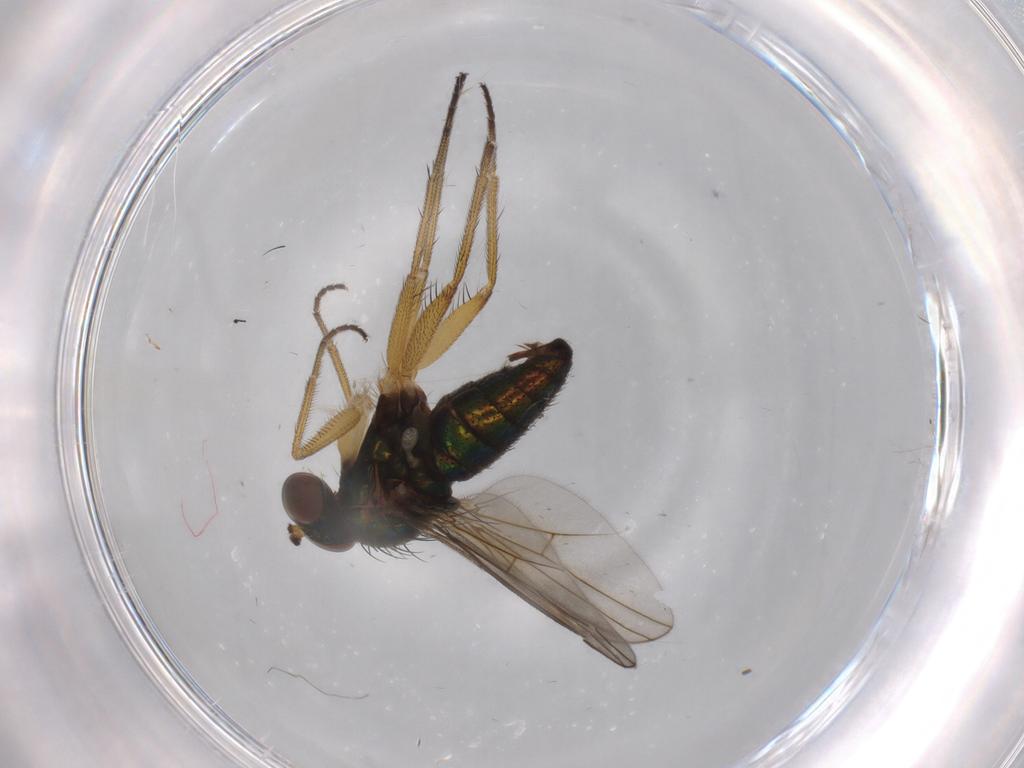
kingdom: Animalia
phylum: Arthropoda
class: Insecta
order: Diptera
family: Dolichopodidae
